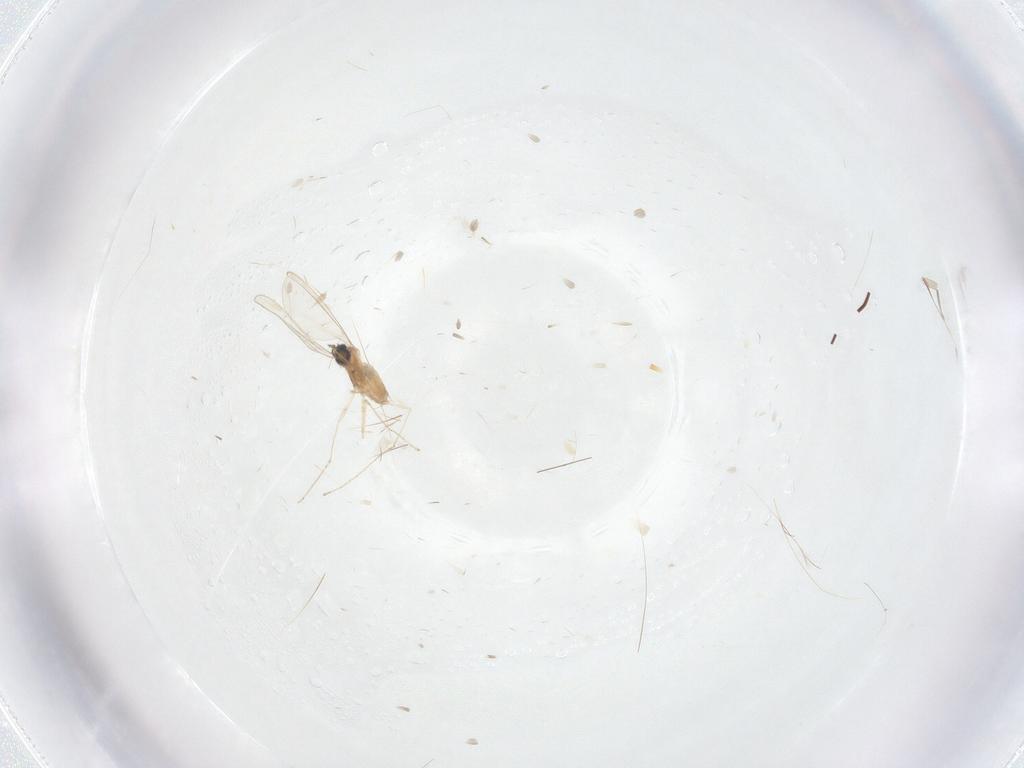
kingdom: Animalia
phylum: Arthropoda
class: Insecta
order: Diptera
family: Cecidomyiidae
